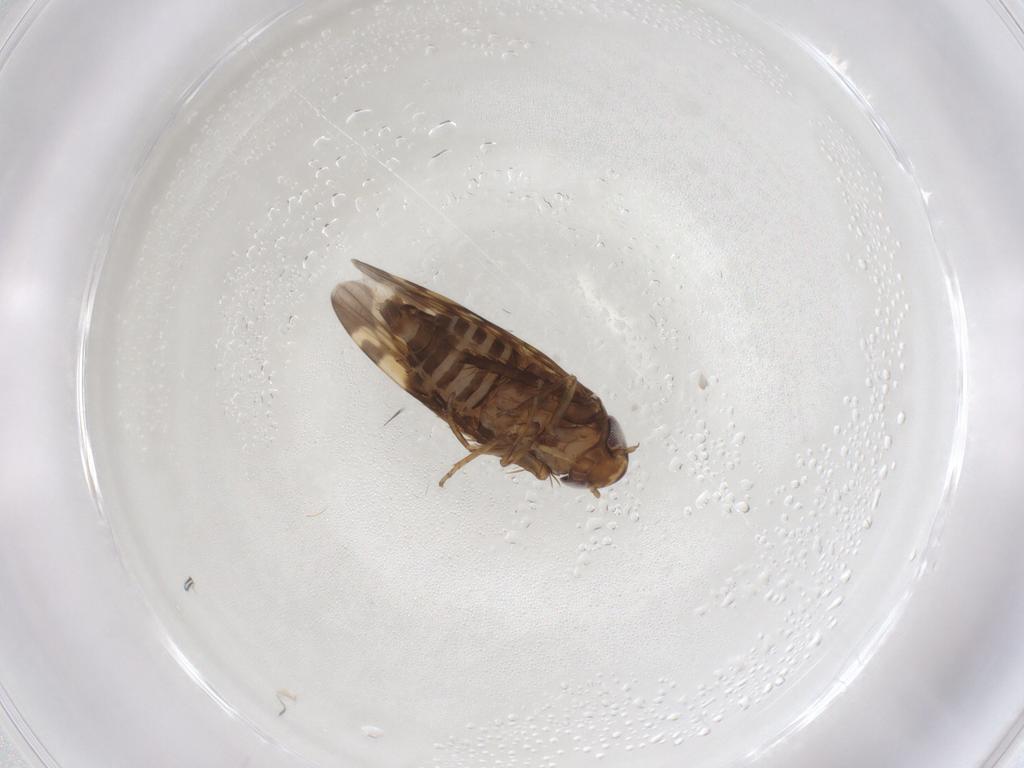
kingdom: Animalia
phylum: Arthropoda
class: Insecta
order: Hemiptera
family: Cicadellidae
